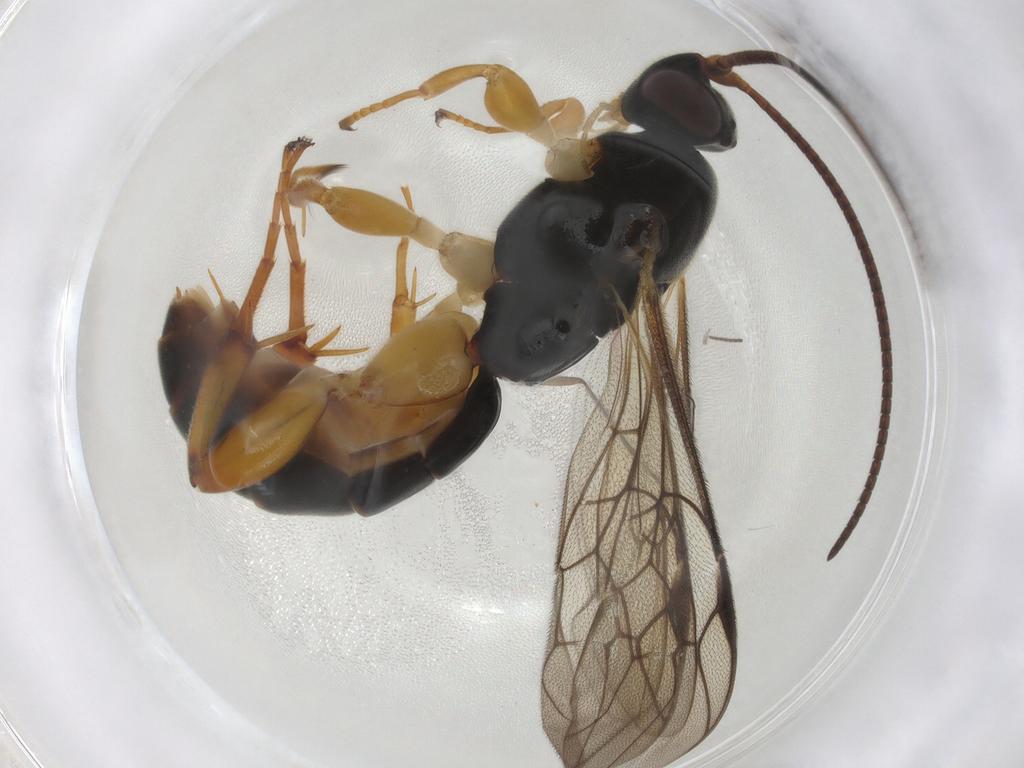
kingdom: Animalia
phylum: Arthropoda
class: Insecta
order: Hymenoptera
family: Ichneumonidae
